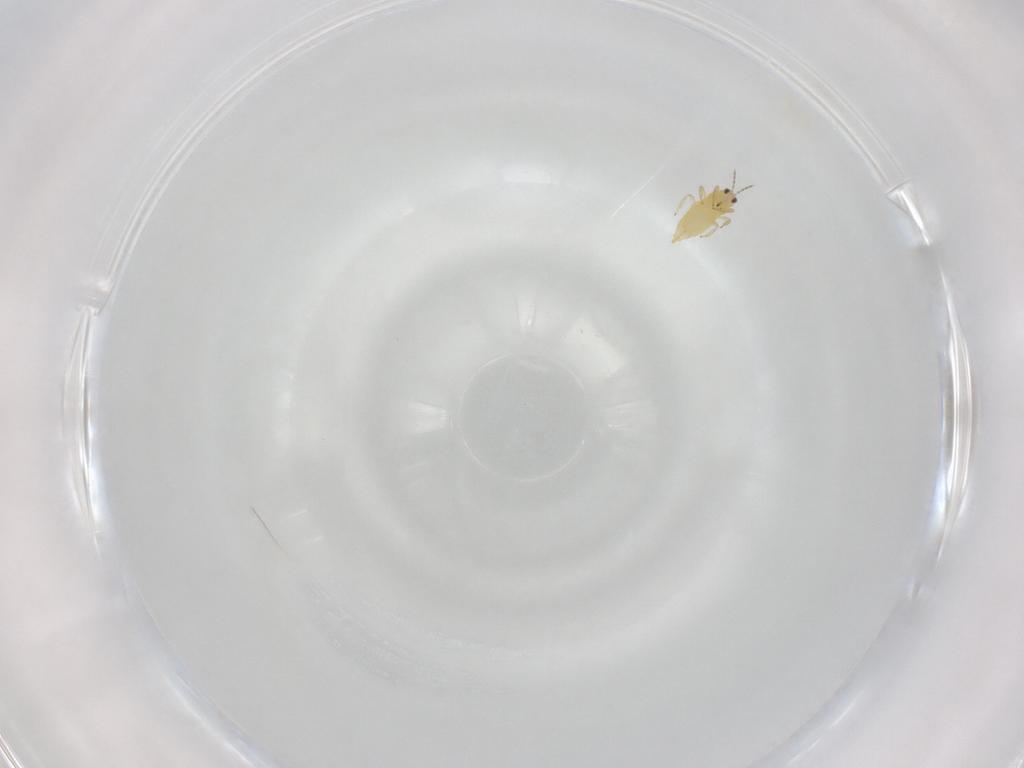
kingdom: Animalia
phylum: Arthropoda
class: Insecta
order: Thysanoptera
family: Thripidae
